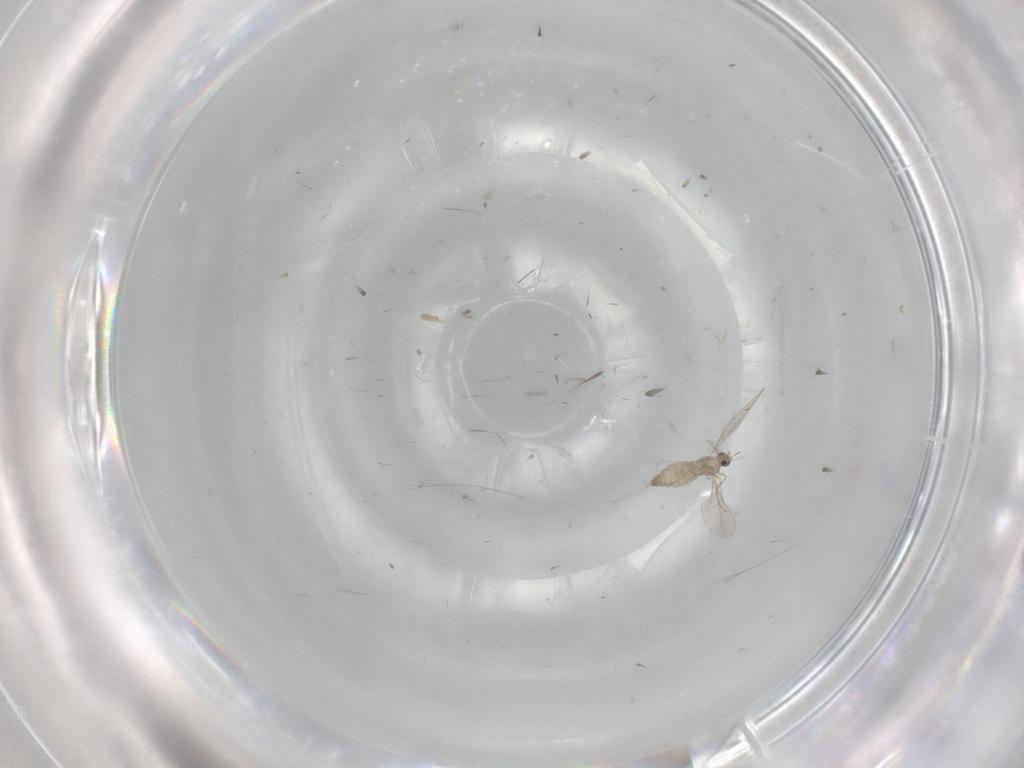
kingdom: Animalia
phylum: Arthropoda
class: Insecta
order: Diptera
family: Cecidomyiidae
